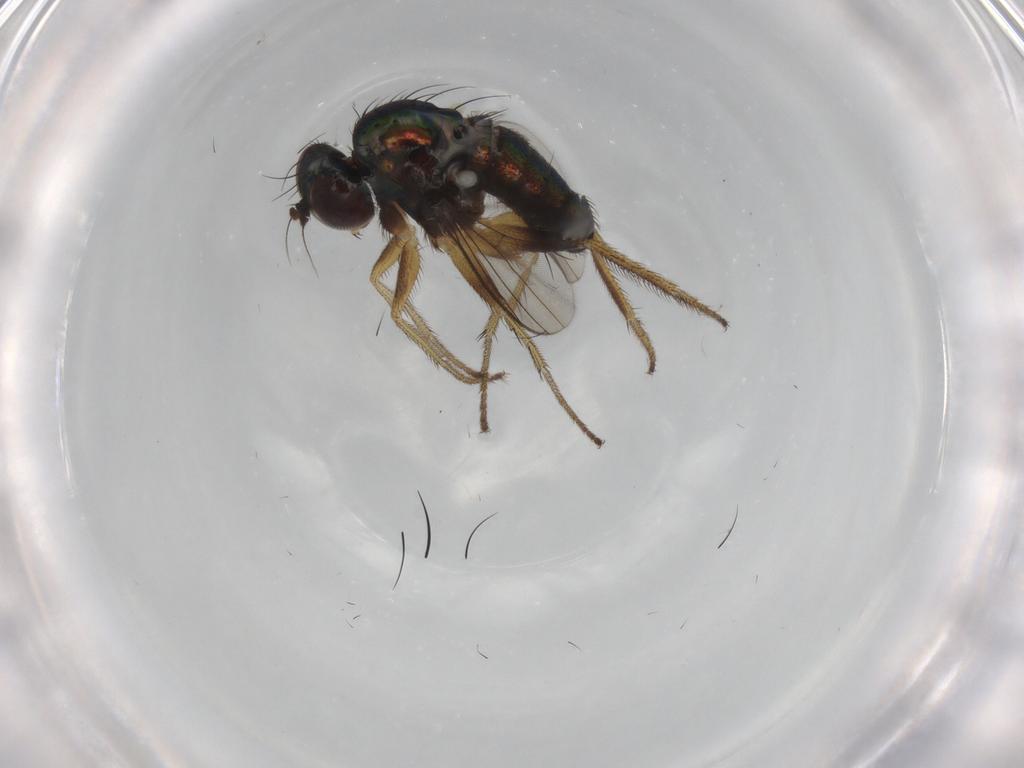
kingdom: Animalia
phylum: Arthropoda
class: Insecta
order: Diptera
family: Dolichopodidae
